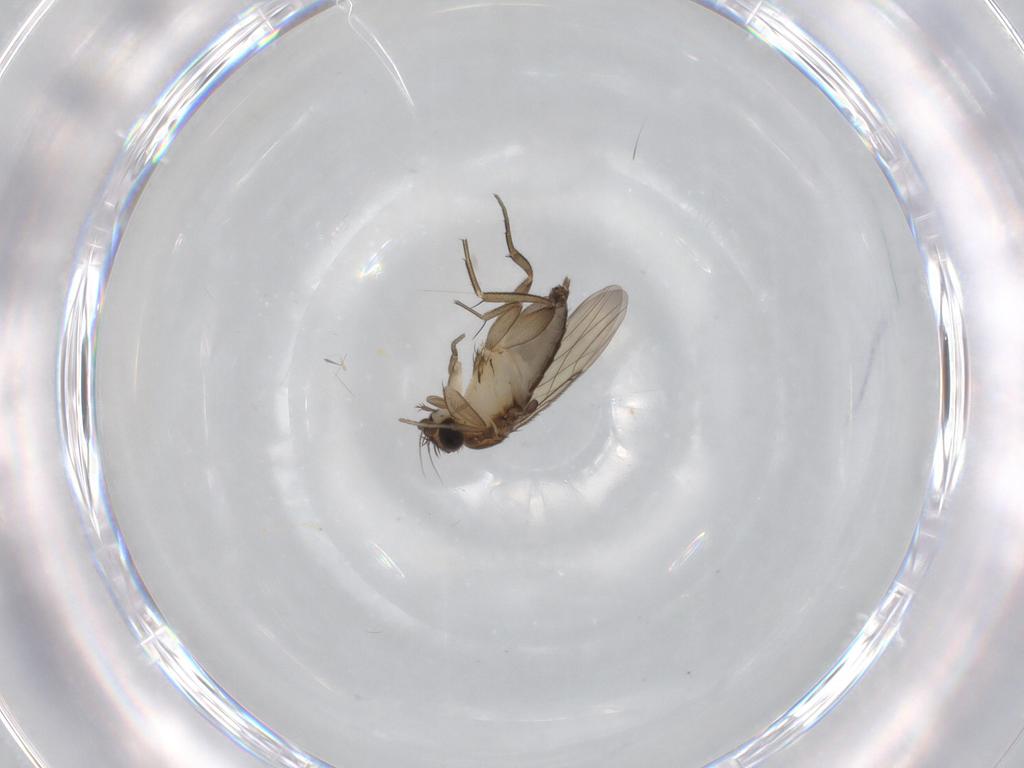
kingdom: Animalia
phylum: Arthropoda
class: Insecta
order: Diptera
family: Phoridae
